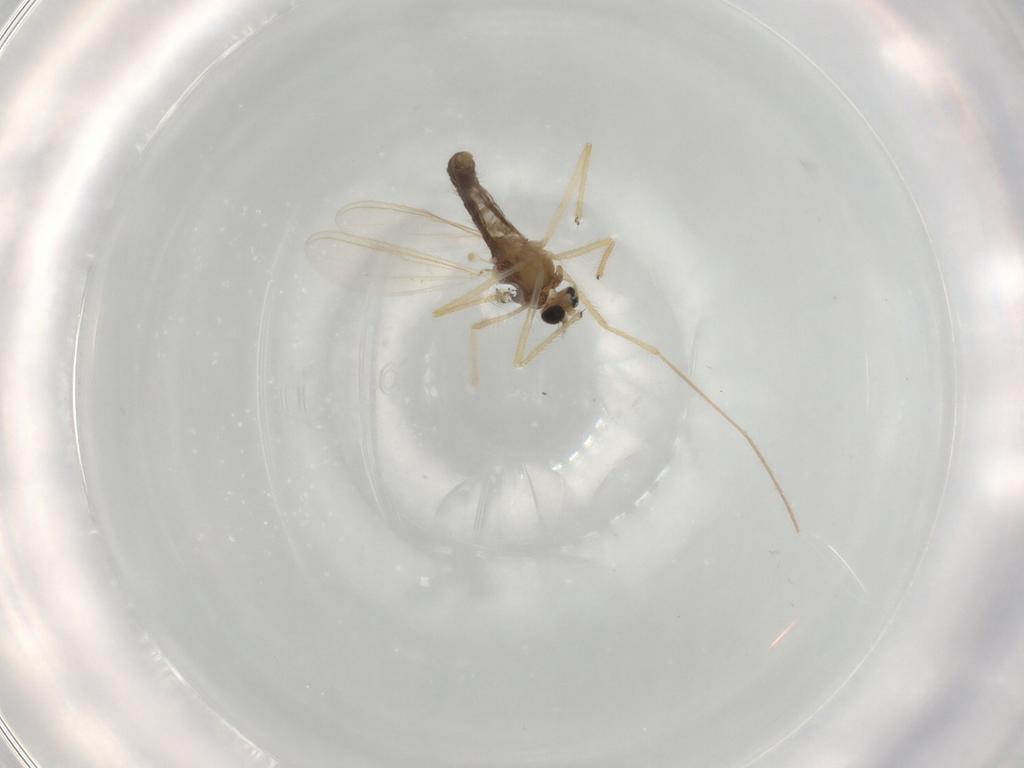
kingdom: Animalia
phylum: Arthropoda
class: Insecta
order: Diptera
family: Chironomidae
